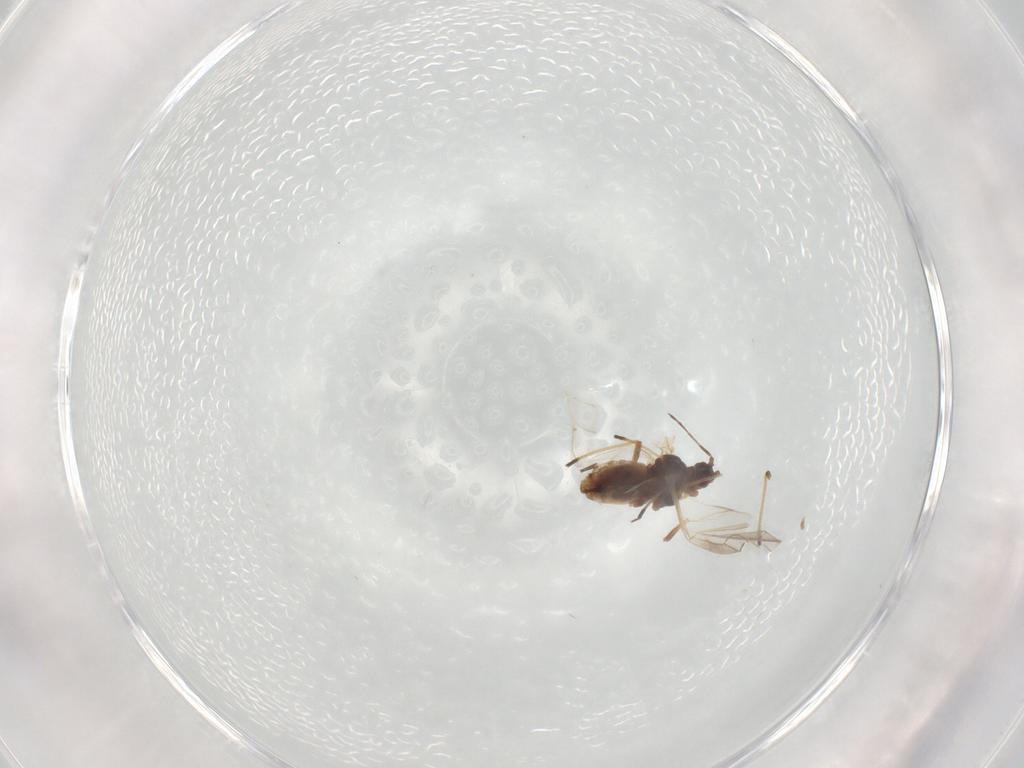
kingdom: Animalia
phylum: Arthropoda
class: Insecta
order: Hemiptera
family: Aphididae
